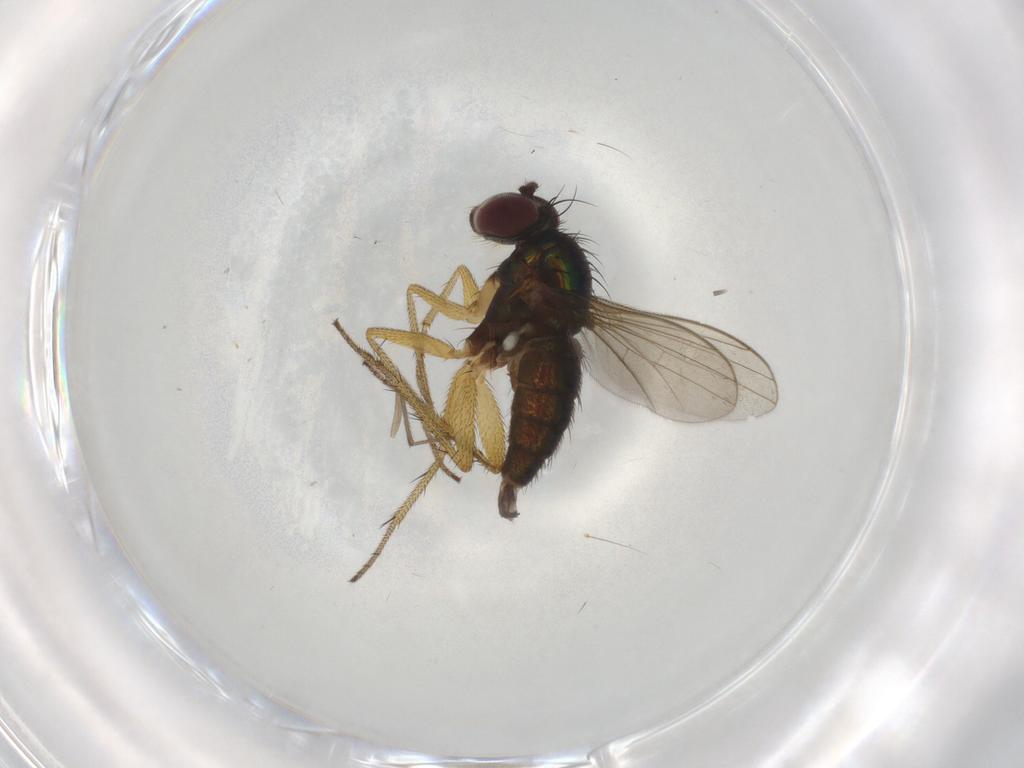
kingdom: Animalia
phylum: Arthropoda
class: Insecta
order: Diptera
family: Chironomidae
